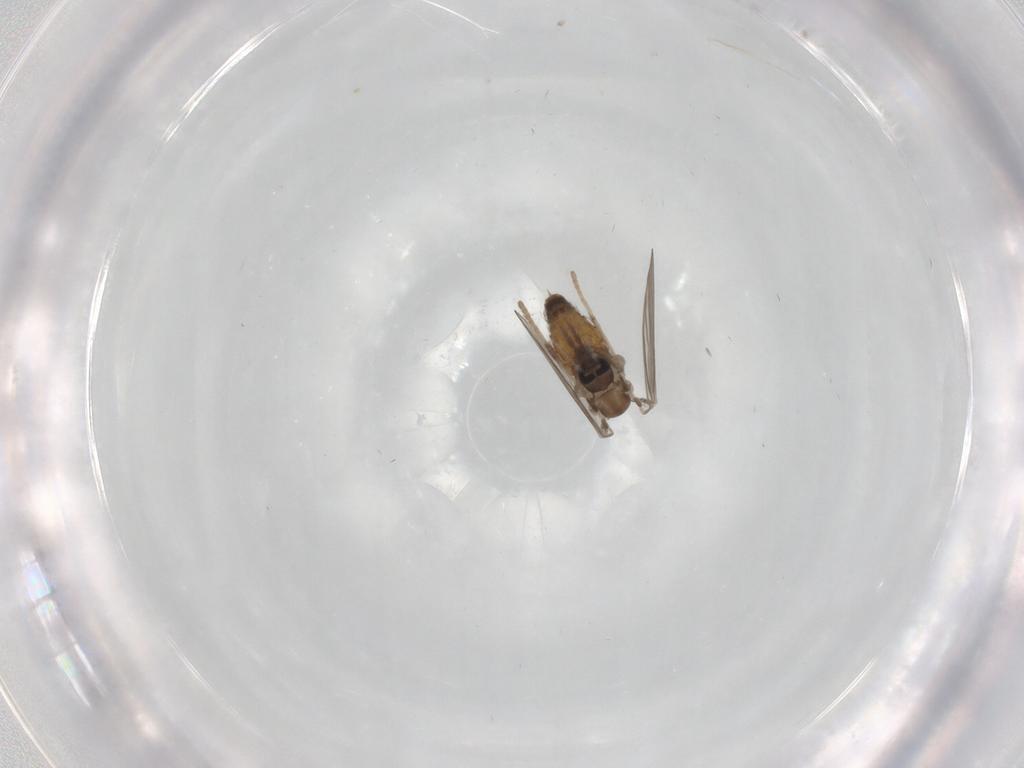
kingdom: Animalia
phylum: Arthropoda
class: Insecta
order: Diptera
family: Psychodidae
